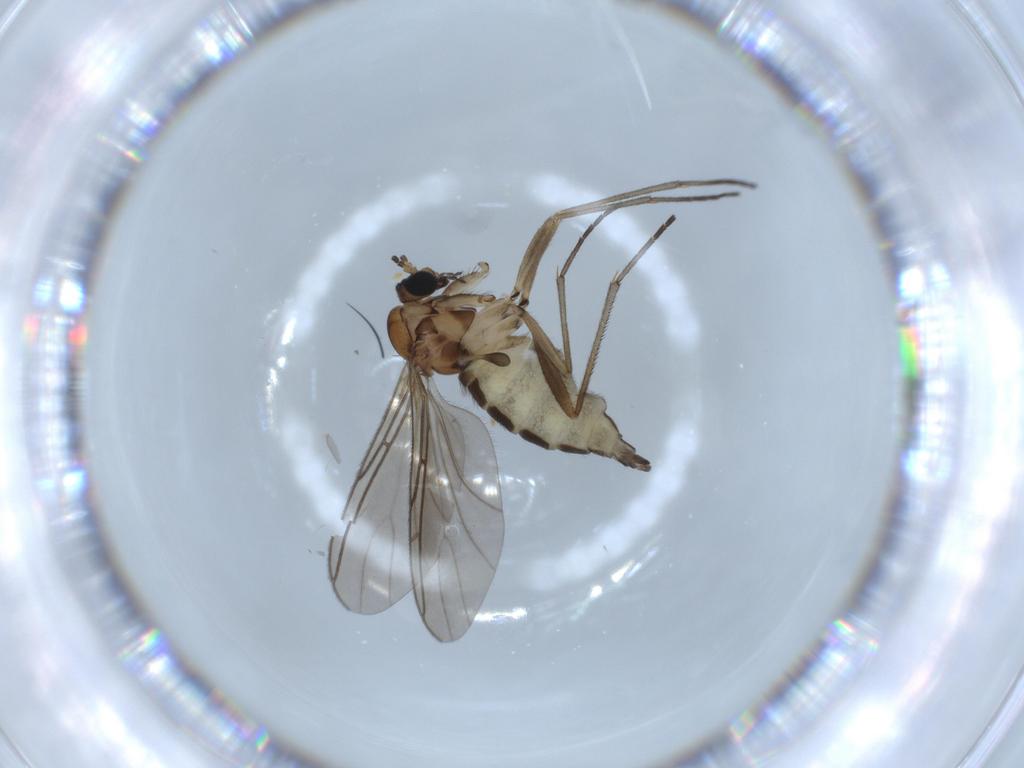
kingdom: Animalia
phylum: Arthropoda
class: Insecta
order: Diptera
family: Sciaridae
